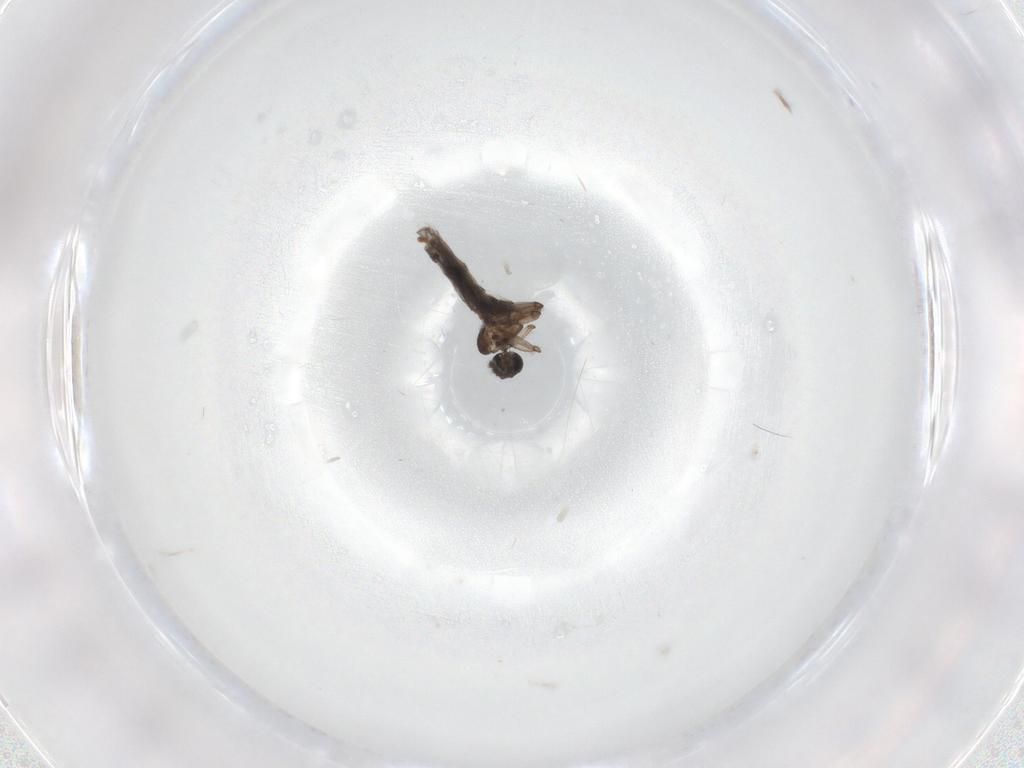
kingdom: Animalia
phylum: Arthropoda
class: Insecta
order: Diptera
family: Sciaridae
